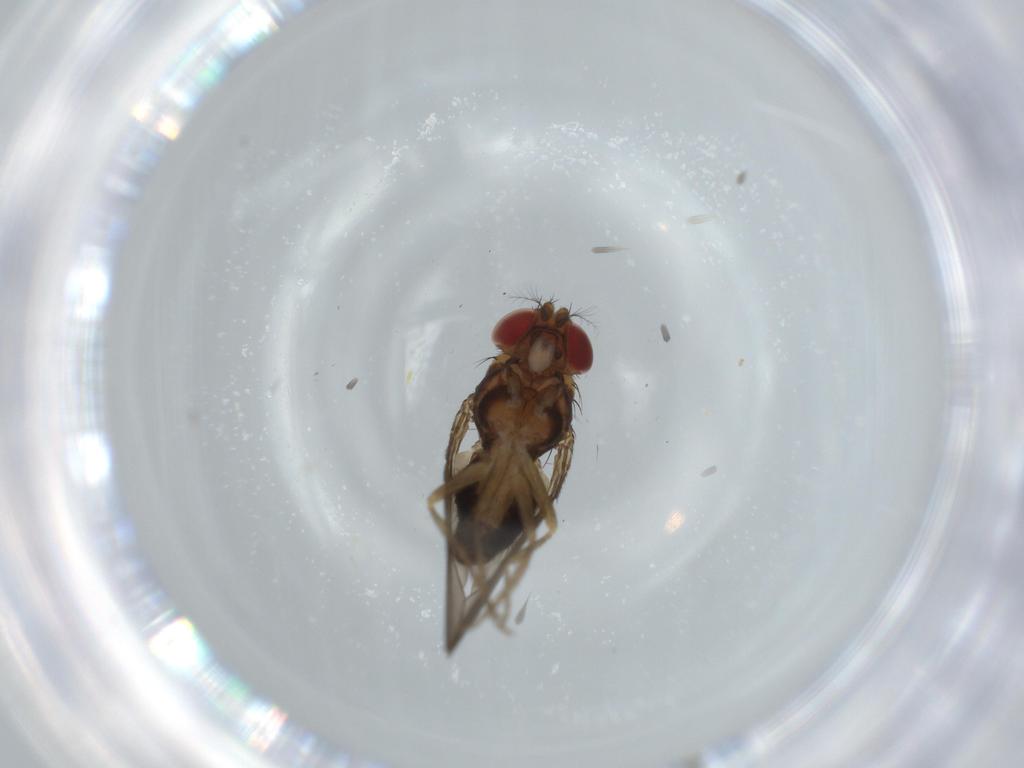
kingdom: Animalia
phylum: Arthropoda
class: Insecta
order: Diptera
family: Drosophilidae
